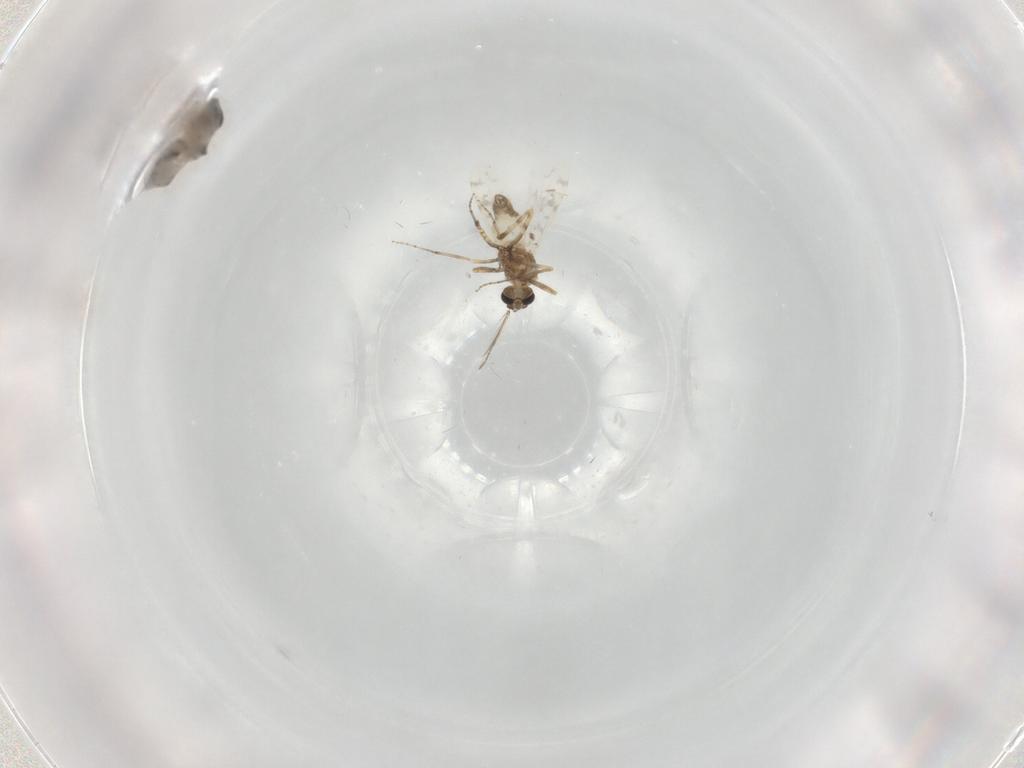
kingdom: Animalia
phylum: Arthropoda
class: Insecta
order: Diptera
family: Ceratopogonidae
